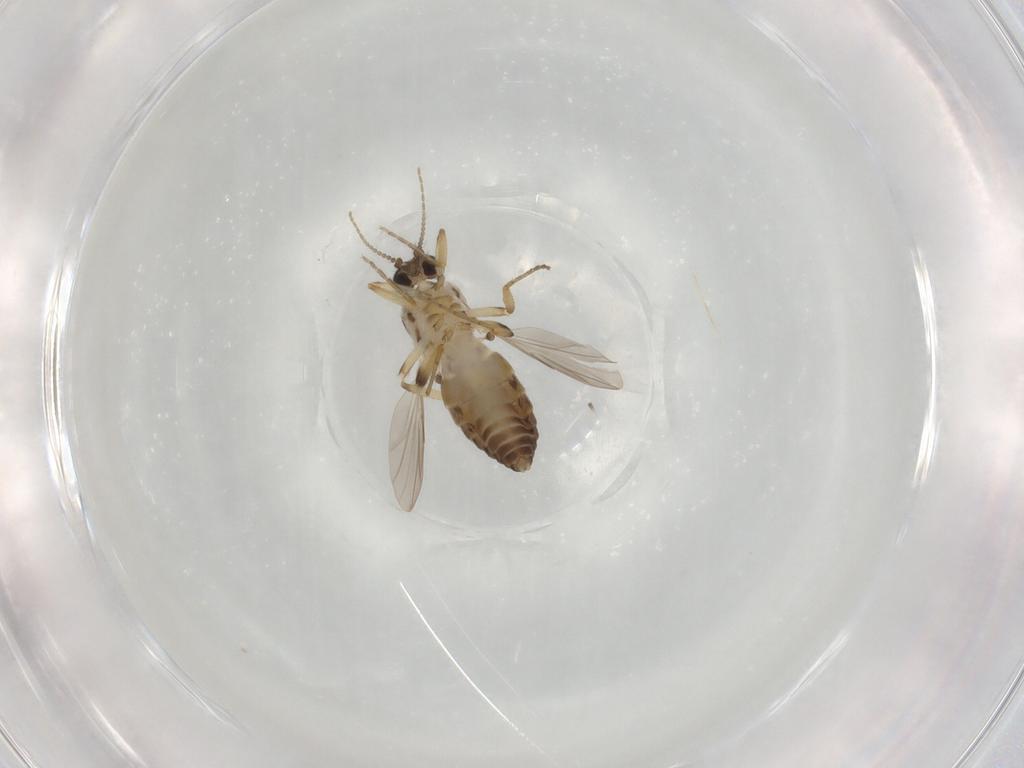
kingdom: Animalia
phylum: Arthropoda
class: Insecta
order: Diptera
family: Ceratopogonidae
